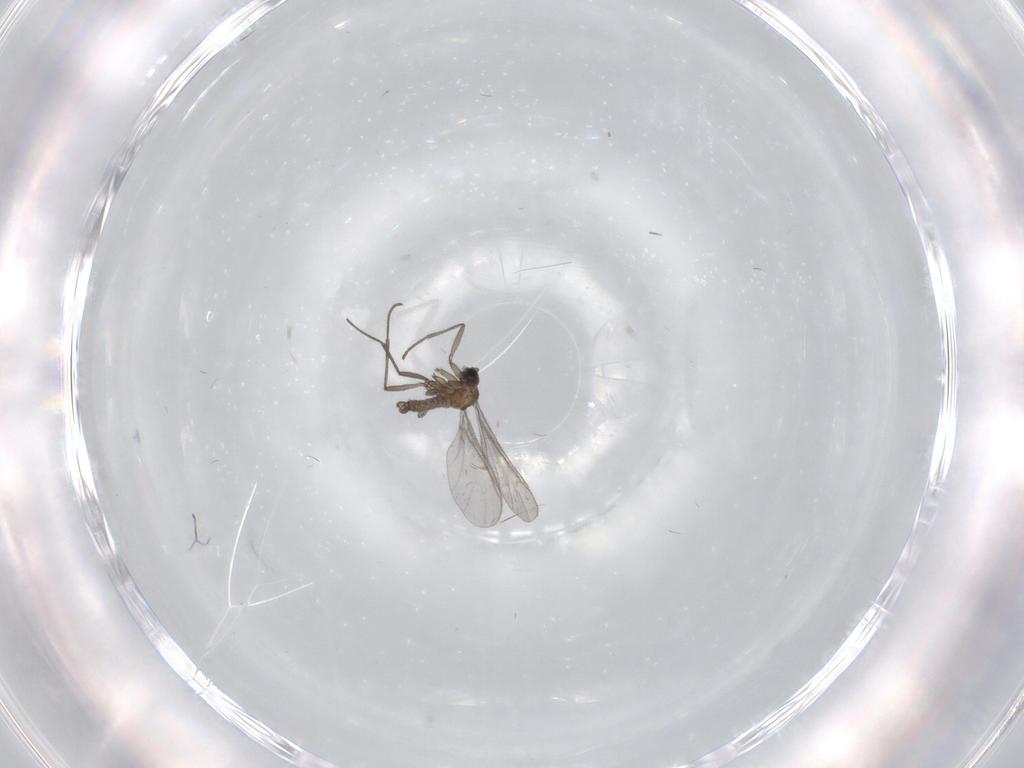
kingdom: Animalia
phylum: Arthropoda
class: Insecta
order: Diptera
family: Sciaridae
